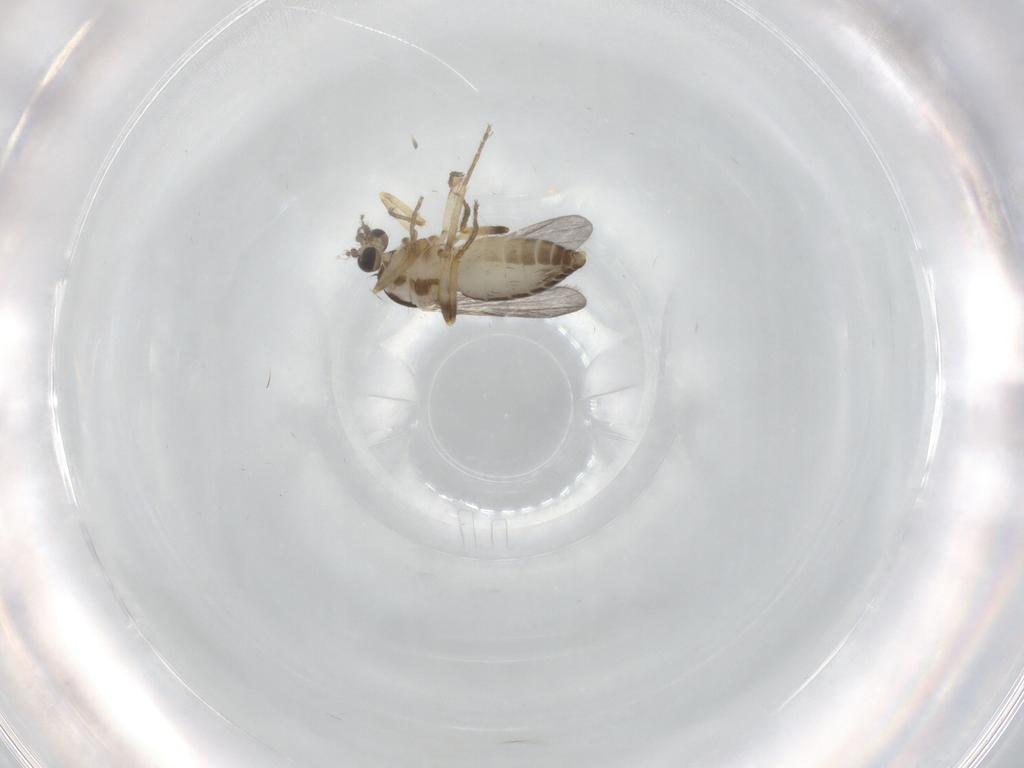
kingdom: Animalia
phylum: Arthropoda
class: Insecta
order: Diptera
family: Ceratopogonidae
